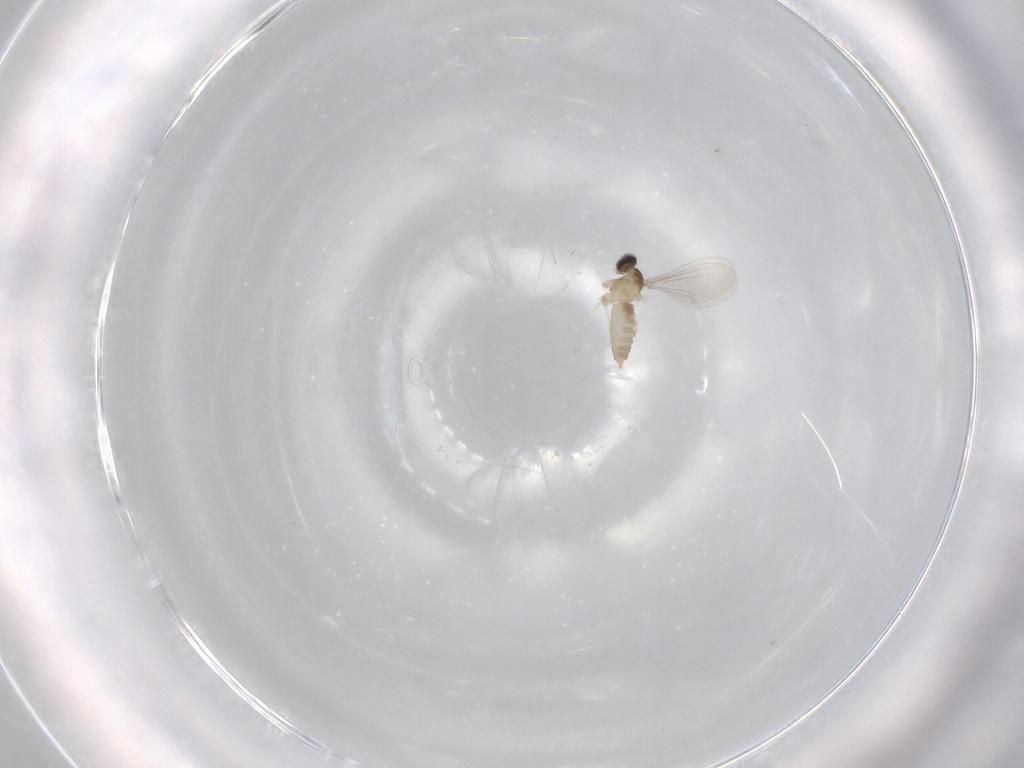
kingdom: Animalia
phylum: Arthropoda
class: Insecta
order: Diptera
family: Cecidomyiidae
